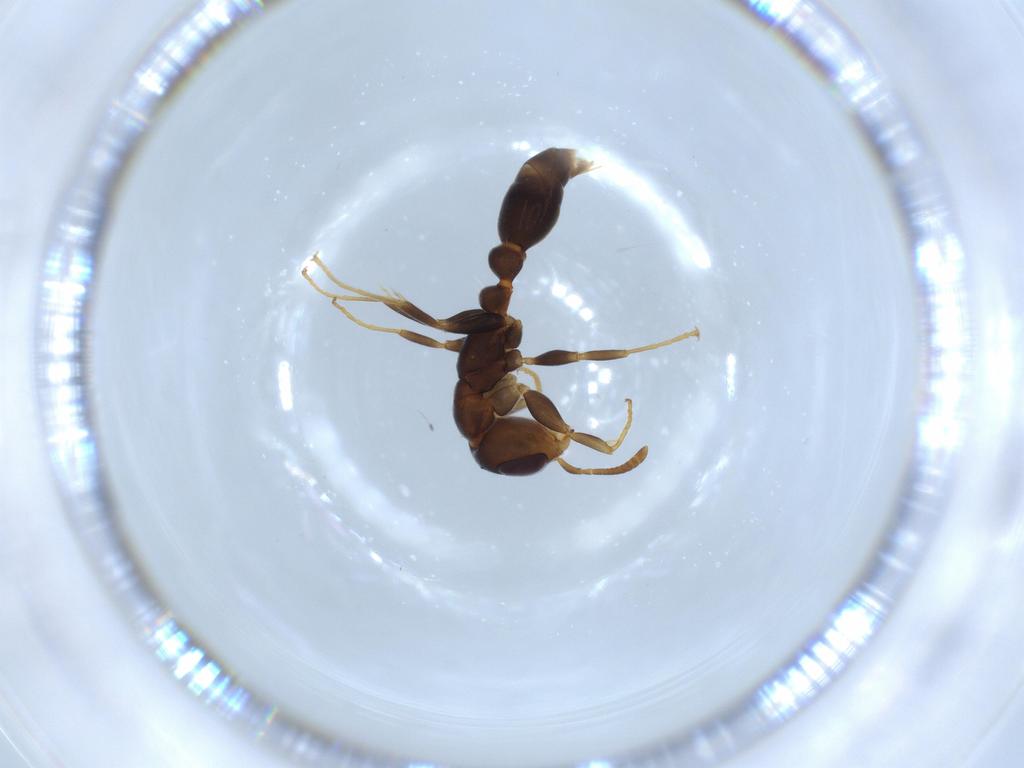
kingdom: Animalia
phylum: Arthropoda
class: Insecta
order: Hymenoptera
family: Formicidae
